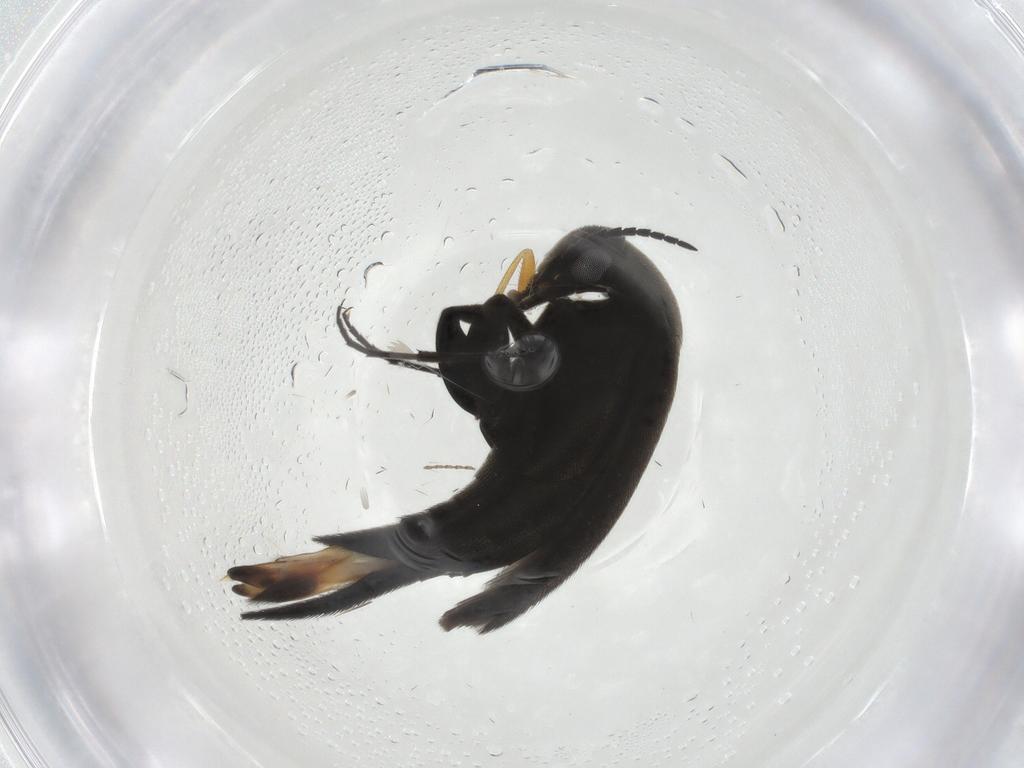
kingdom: Animalia
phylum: Arthropoda
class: Insecta
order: Coleoptera
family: Mordellidae
